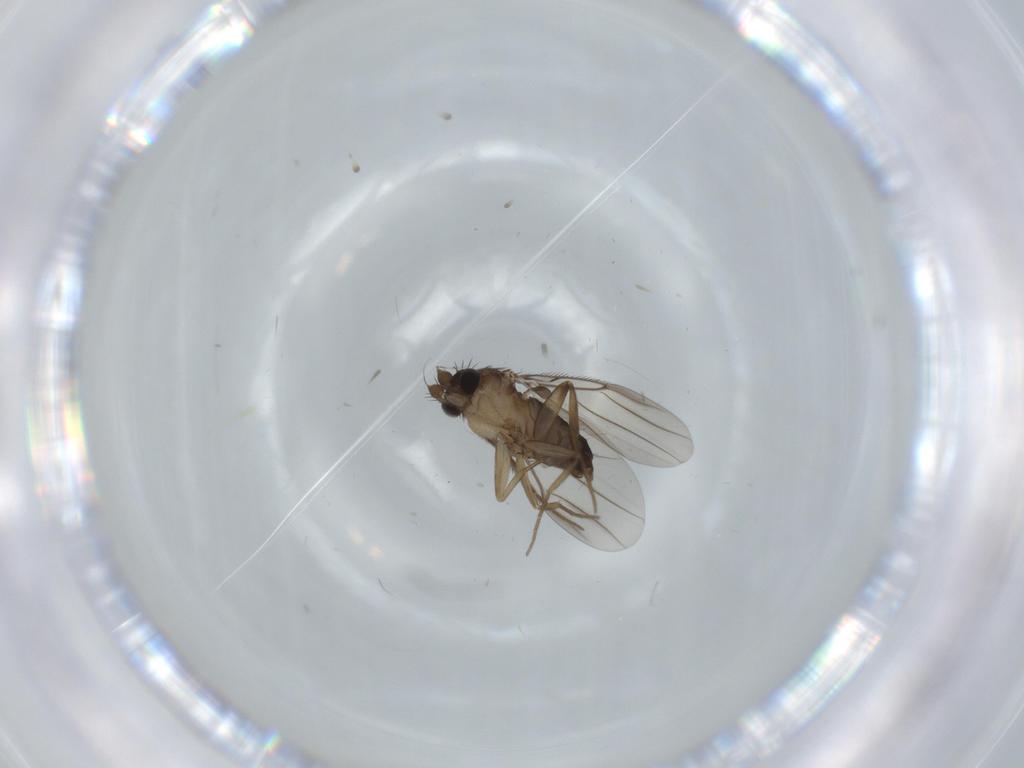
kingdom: Animalia
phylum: Arthropoda
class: Insecta
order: Diptera
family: Phoridae
